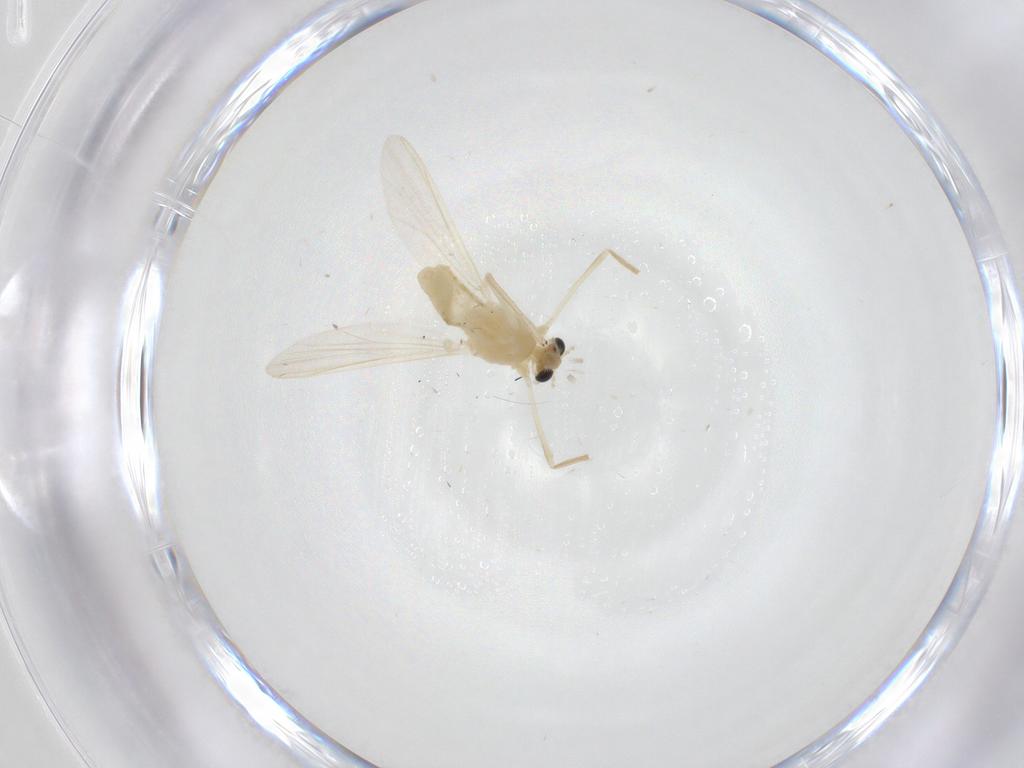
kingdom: Animalia
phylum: Arthropoda
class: Insecta
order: Diptera
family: Chironomidae
